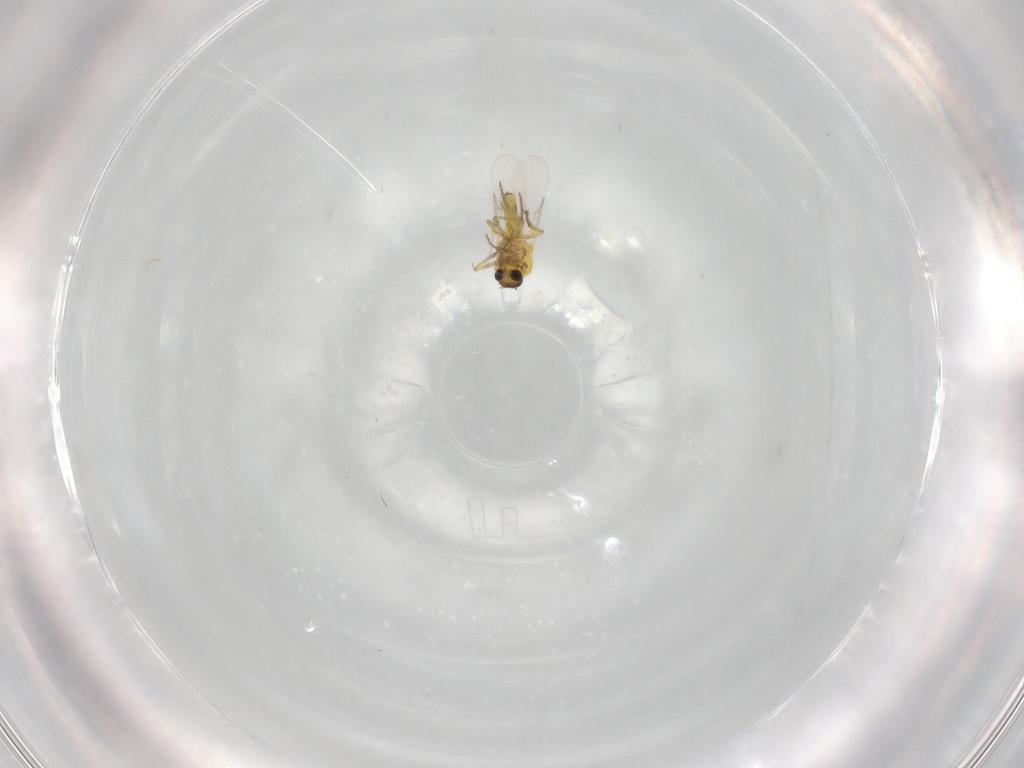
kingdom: Animalia
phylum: Arthropoda
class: Insecta
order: Diptera
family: Ceratopogonidae
